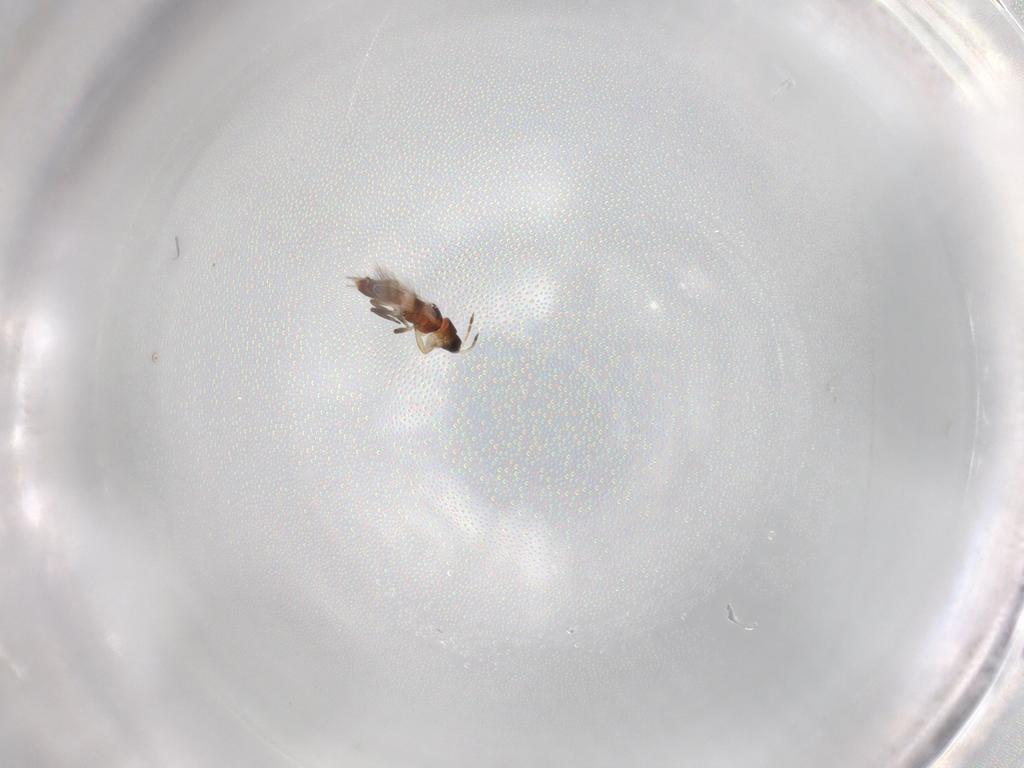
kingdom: Animalia
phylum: Arthropoda
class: Insecta
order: Thysanoptera
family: Aeolothripidae
